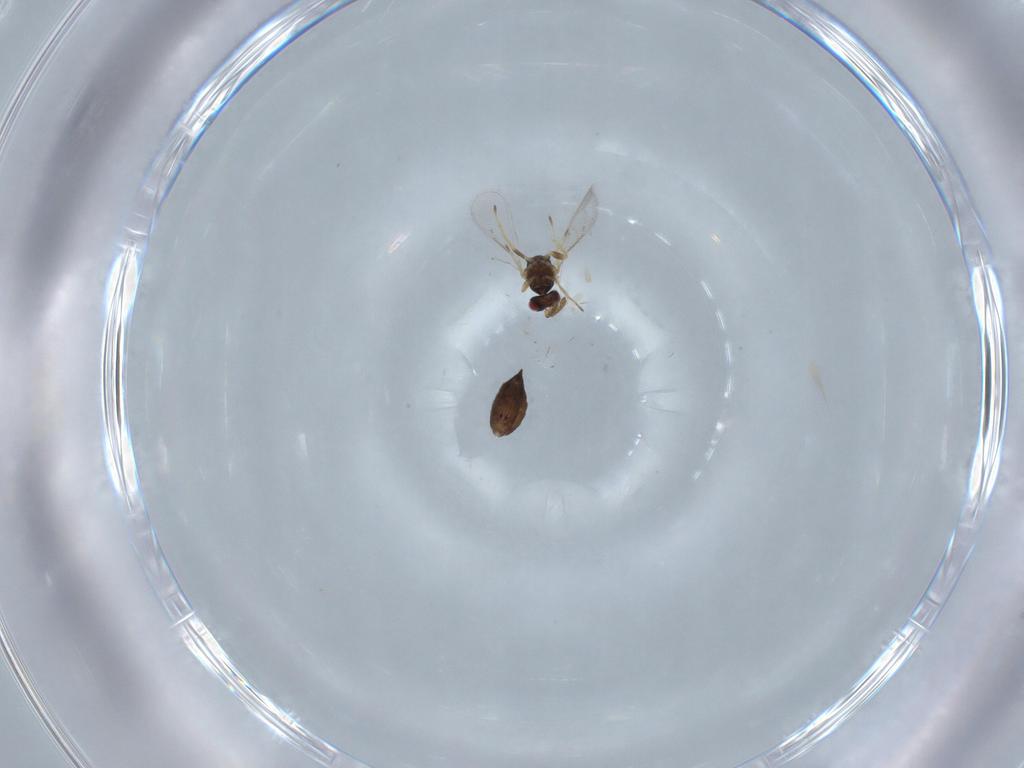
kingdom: Animalia
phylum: Arthropoda
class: Insecta
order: Hymenoptera
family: Eulophidae
